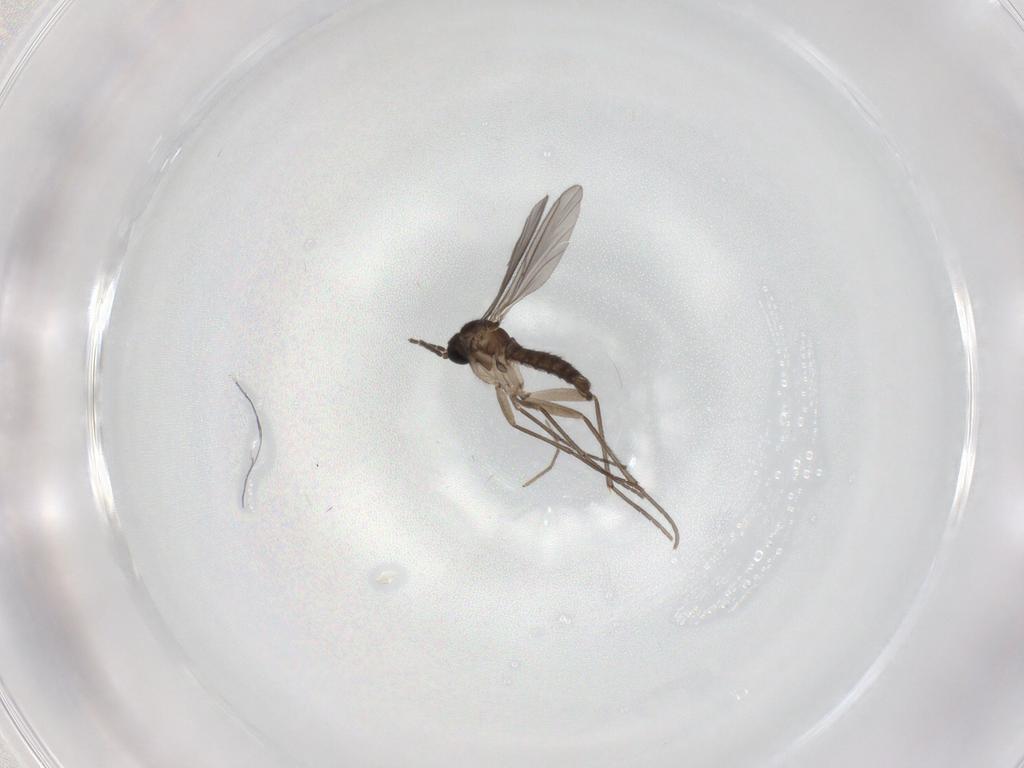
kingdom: Animalia
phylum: Arthropoda
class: Insecta
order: Diptera
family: Sciaridae
